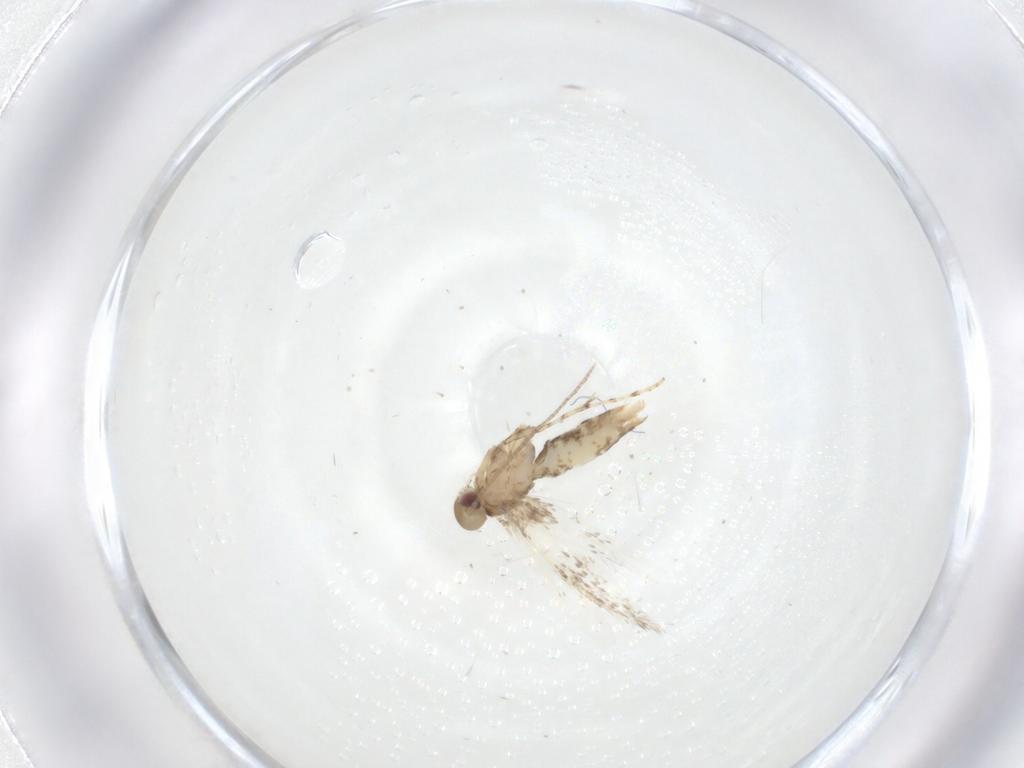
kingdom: Animalia
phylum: Arthropoda
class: Insecta
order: Lepidoptera
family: Gracillariidae
